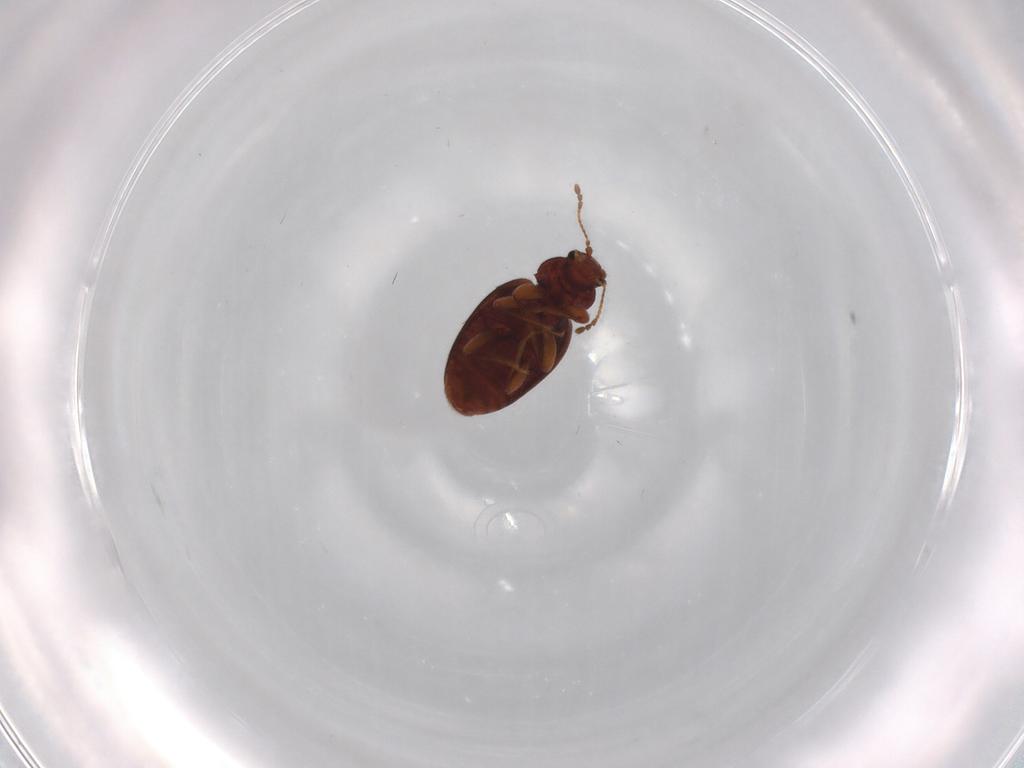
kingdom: Animalia
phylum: Arthropoda
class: Insecta
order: Coleoptera
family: Latridiidae
